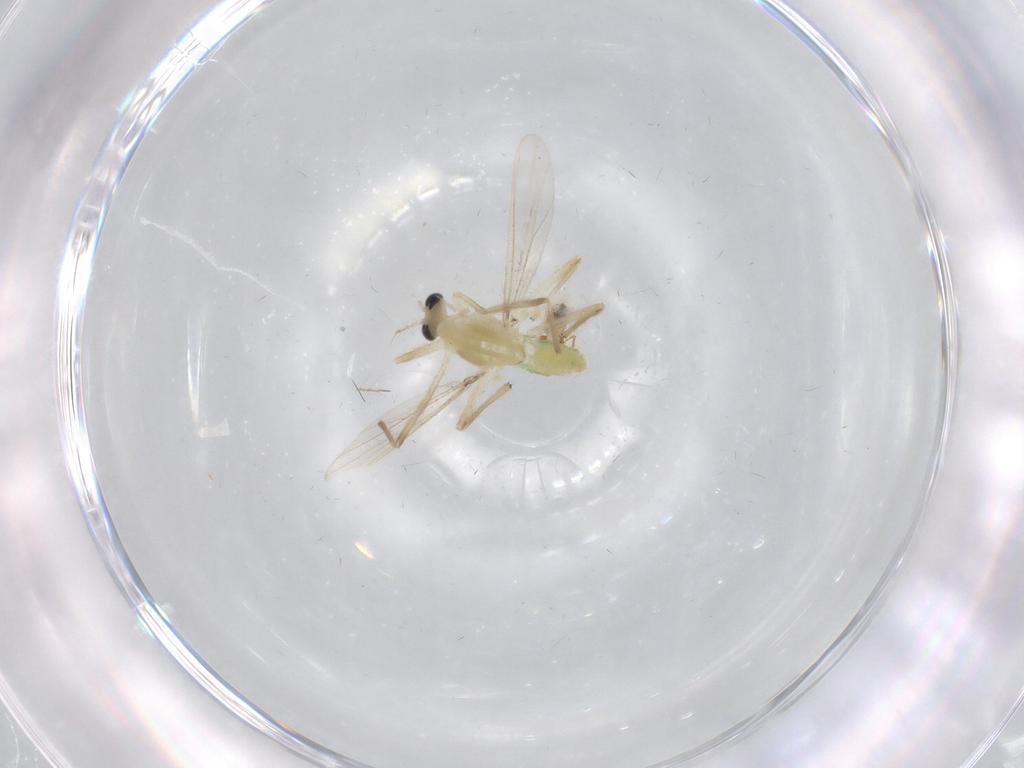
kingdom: Animalia
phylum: Arthropoda
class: Insecta
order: Diptera
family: Chironomidae
